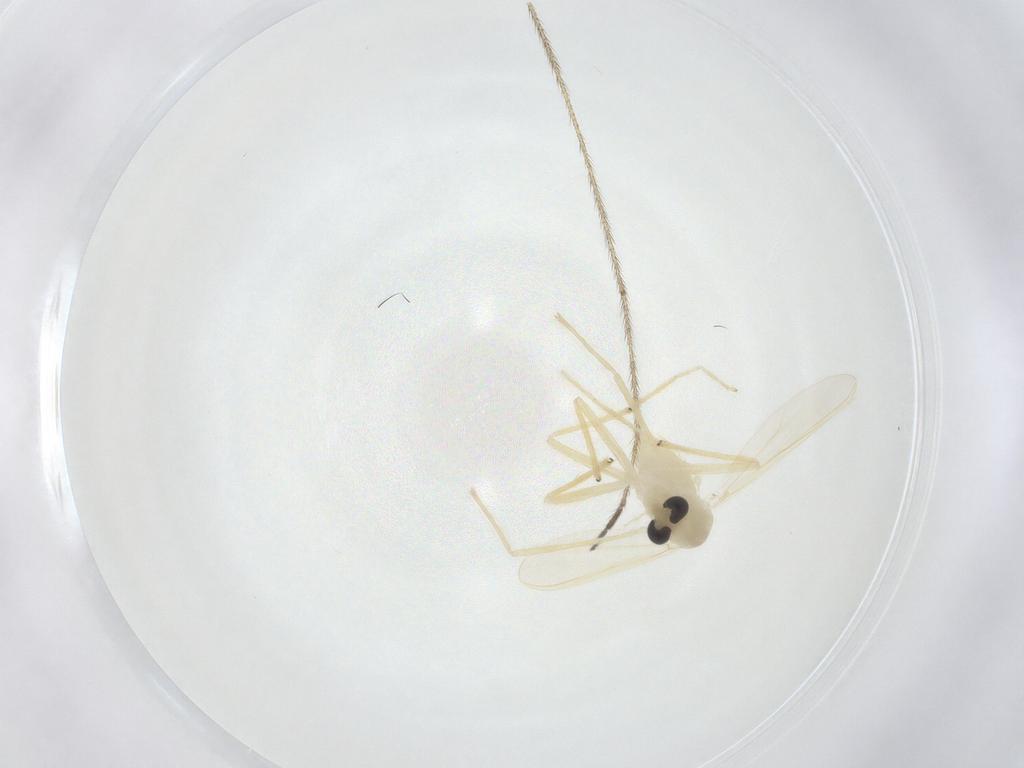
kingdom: Animalia
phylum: Arthropoda
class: Insecta
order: Diptera
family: Limoniidae
